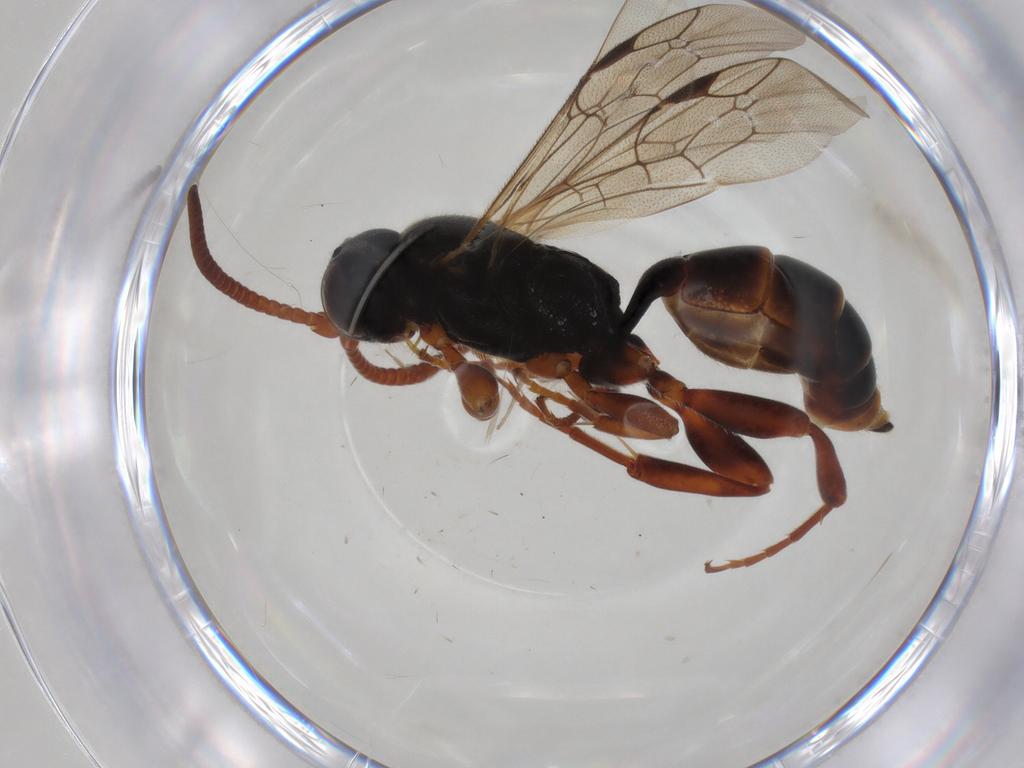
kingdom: Animalia
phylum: Arthropoda
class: Insecta
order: Hymenoptera
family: Ichneumonidae
